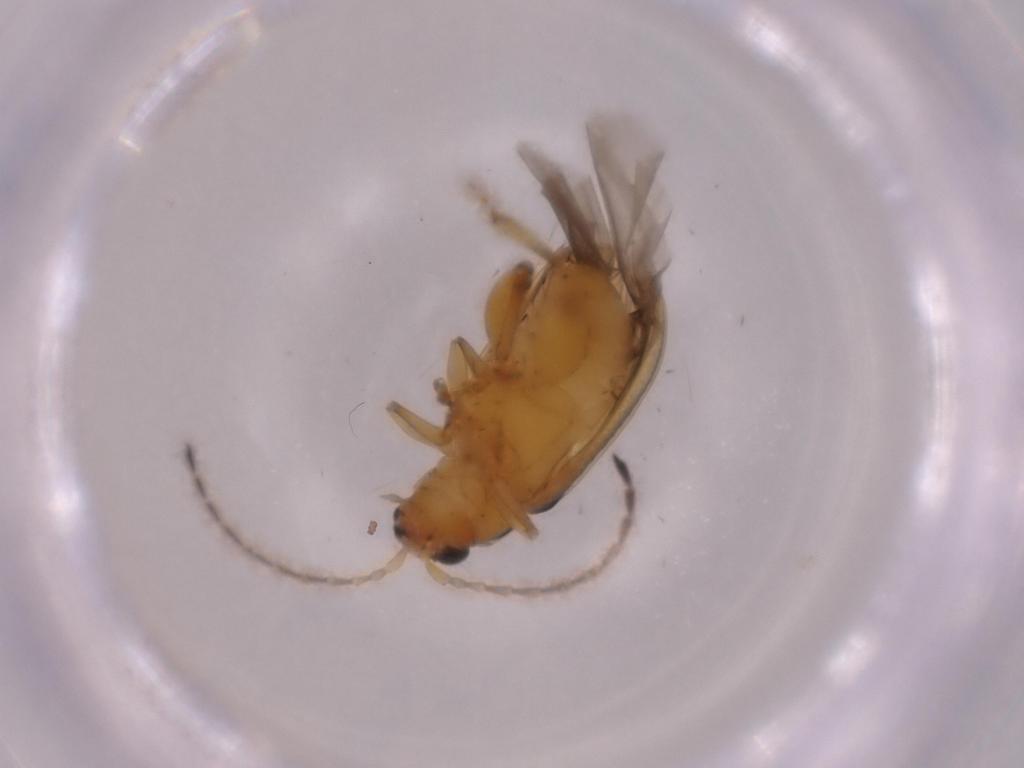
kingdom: Animalia
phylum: Arthropoda
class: Insecta
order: Coleoptera
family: Chrysomelidae
